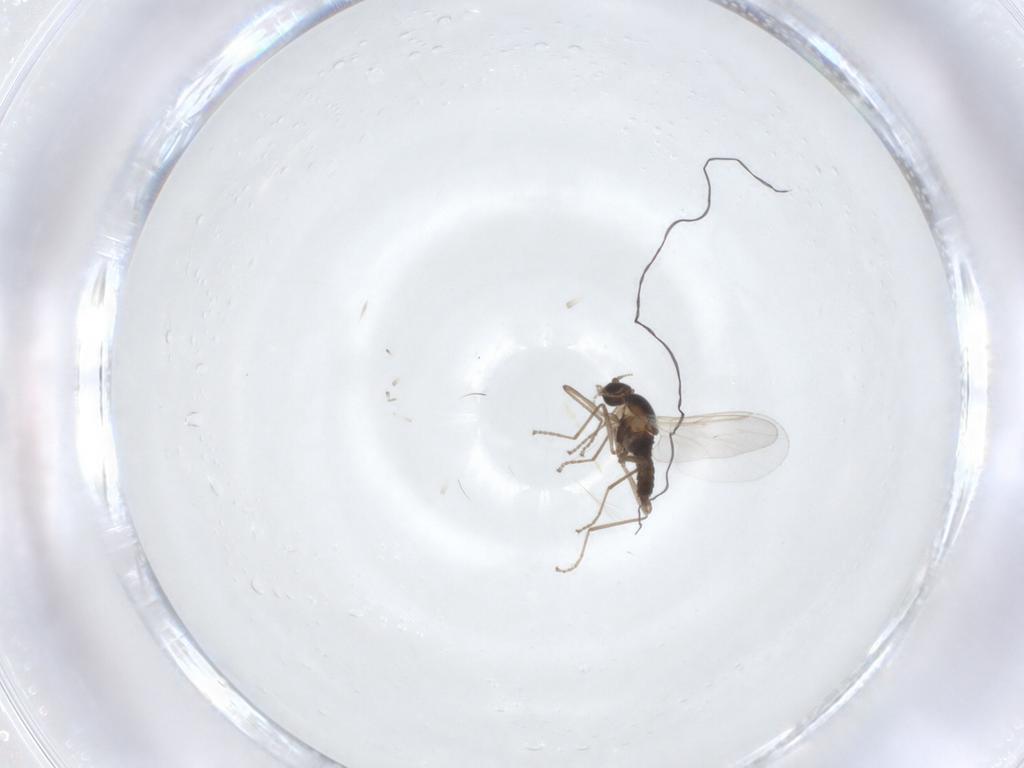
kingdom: Animalia
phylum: Arthropoda
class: Insecta
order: Diptera
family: Cecidomyiidae
